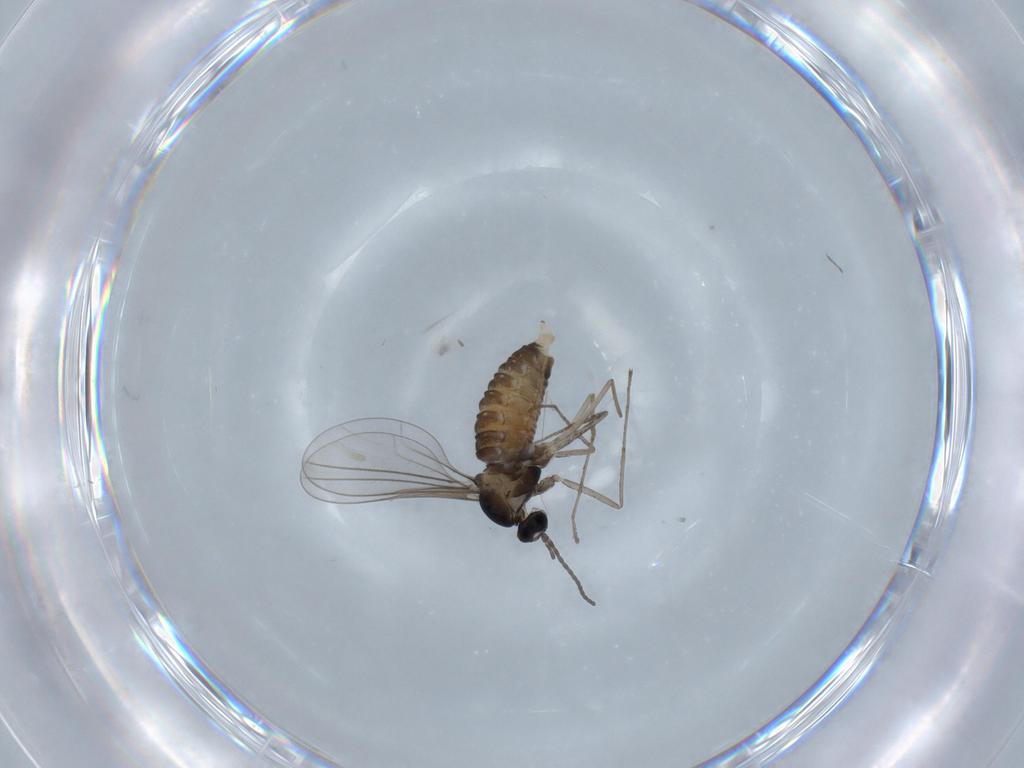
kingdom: Animalia
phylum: Arthropoda
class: Insecta
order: Diptera
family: Cecidomyiidae
